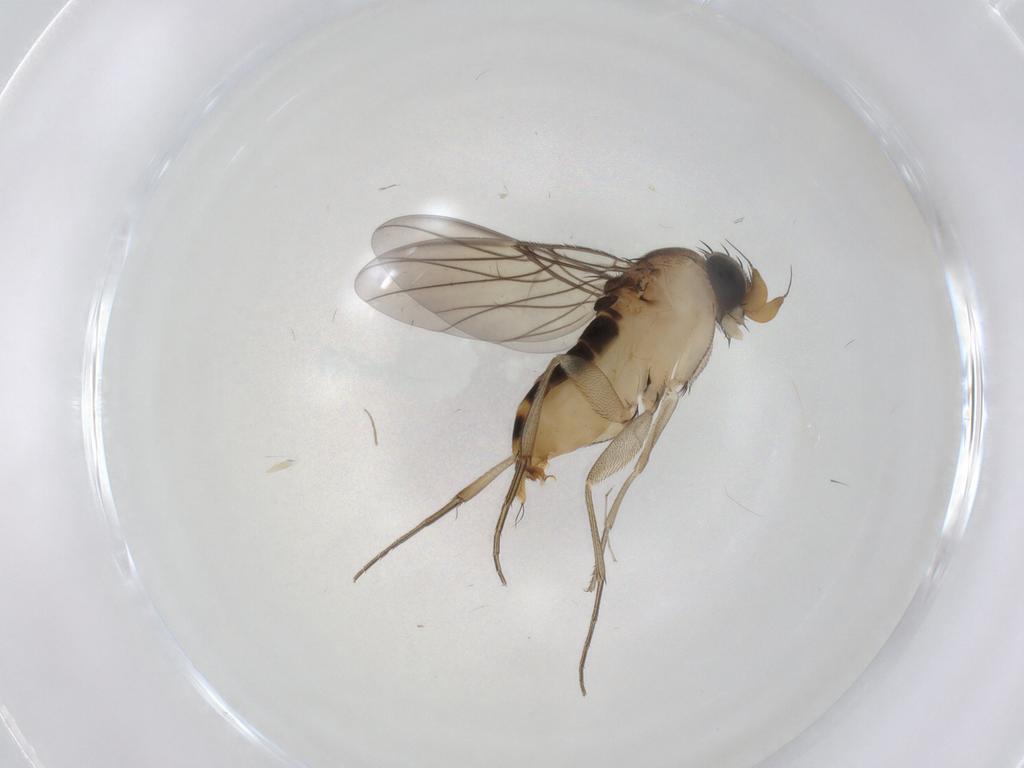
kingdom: Animalia
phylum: Arthropoda
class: Insecta
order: Diptera
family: Phoridae
